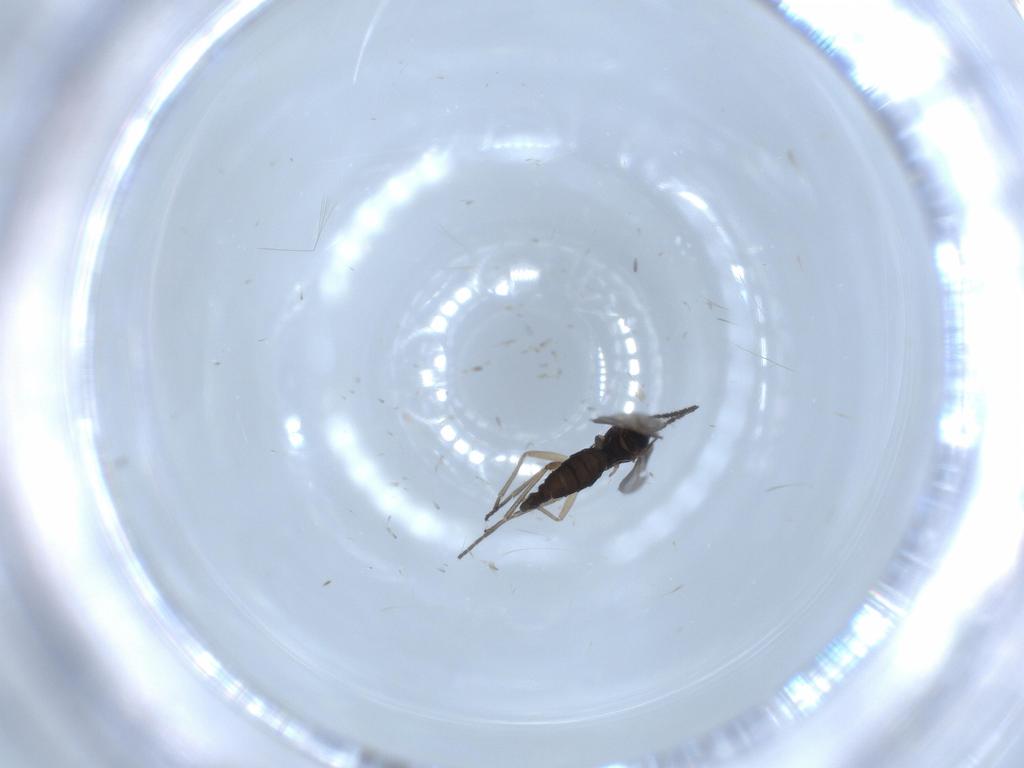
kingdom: Animalia
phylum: Arthropoda
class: Insecta
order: Diptera
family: Sciaridae
